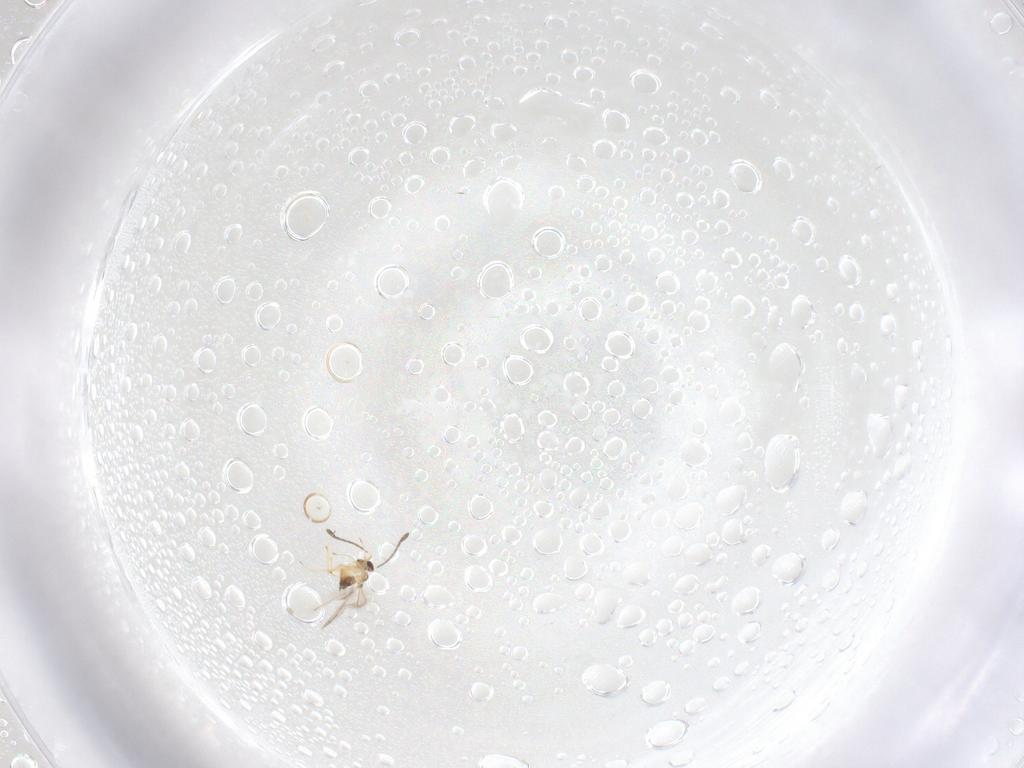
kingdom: Animalia
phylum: Arthropoda
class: Insecta
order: Hymenoptera
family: Mymaridae
